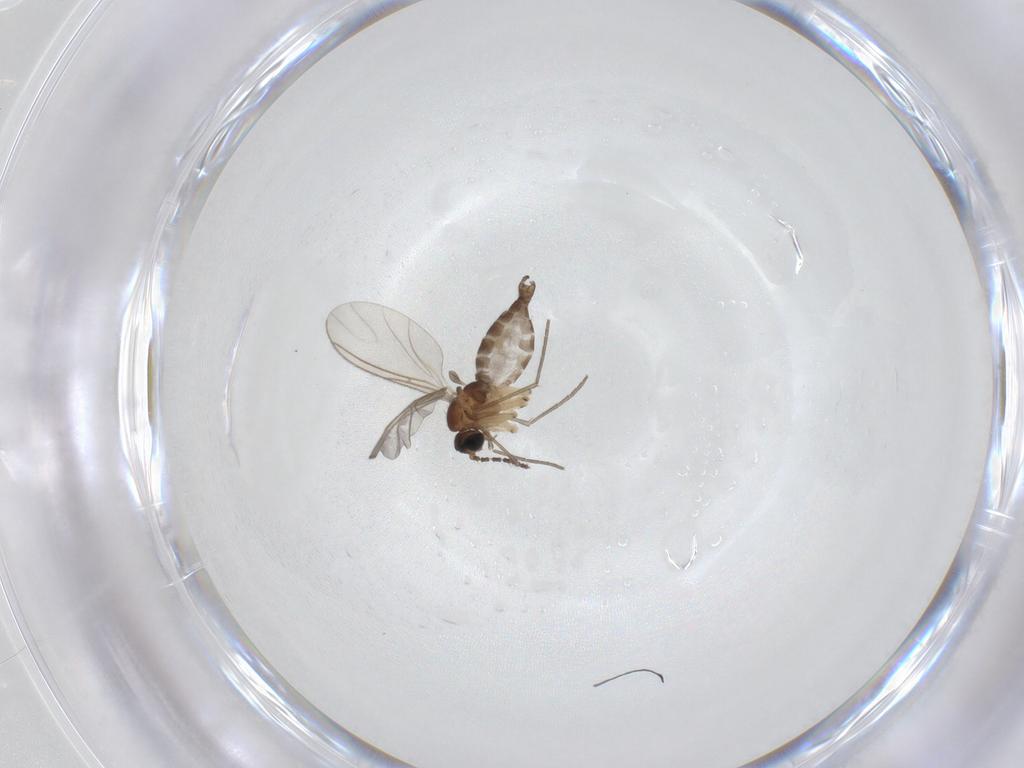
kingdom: Animalia
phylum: Arthropoda
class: Insecta
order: Diptera
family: Sciaridae
